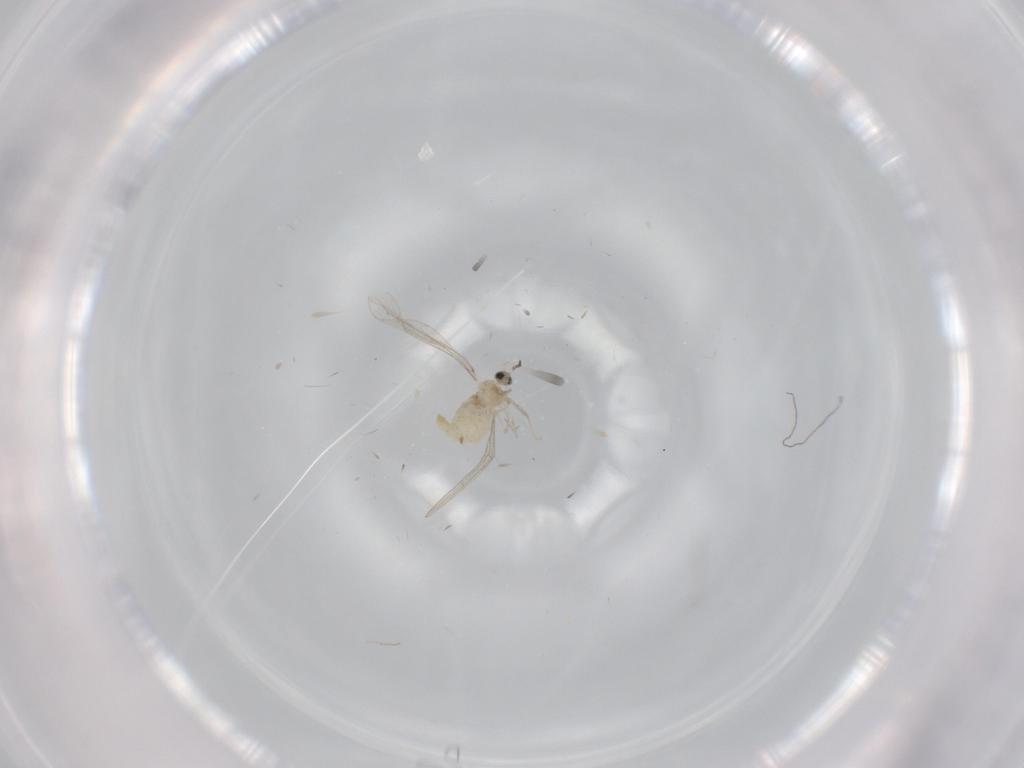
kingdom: Animalia
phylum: Arthropoda
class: Insecta
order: Diptera
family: Chironomidae
